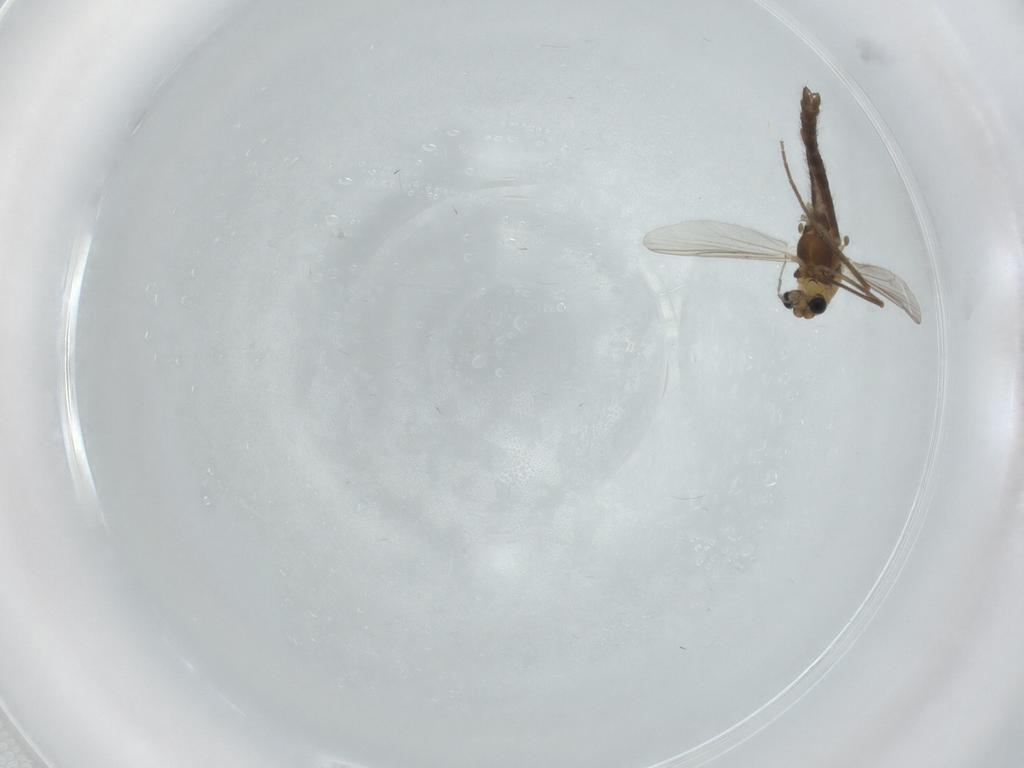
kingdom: Animalia
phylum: Arthropoda
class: Insecta
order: Diptera
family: Chironomidae
